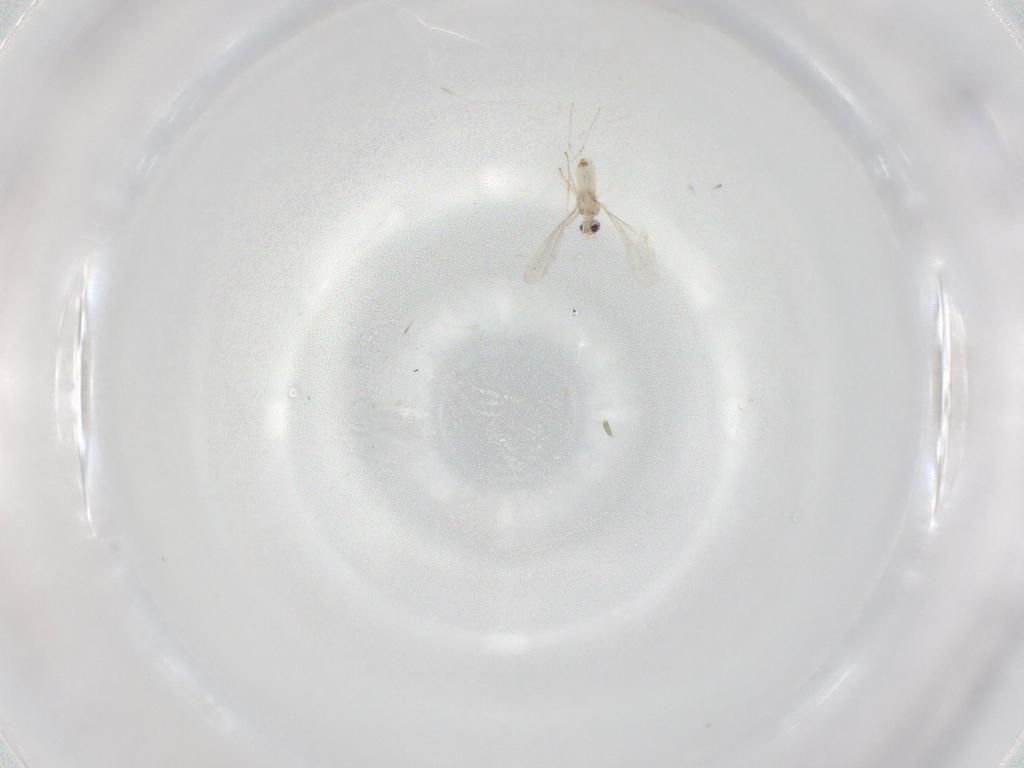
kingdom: Animalia
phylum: Arthropoda
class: Insecta
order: Diptera
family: Cecidomyiidae
